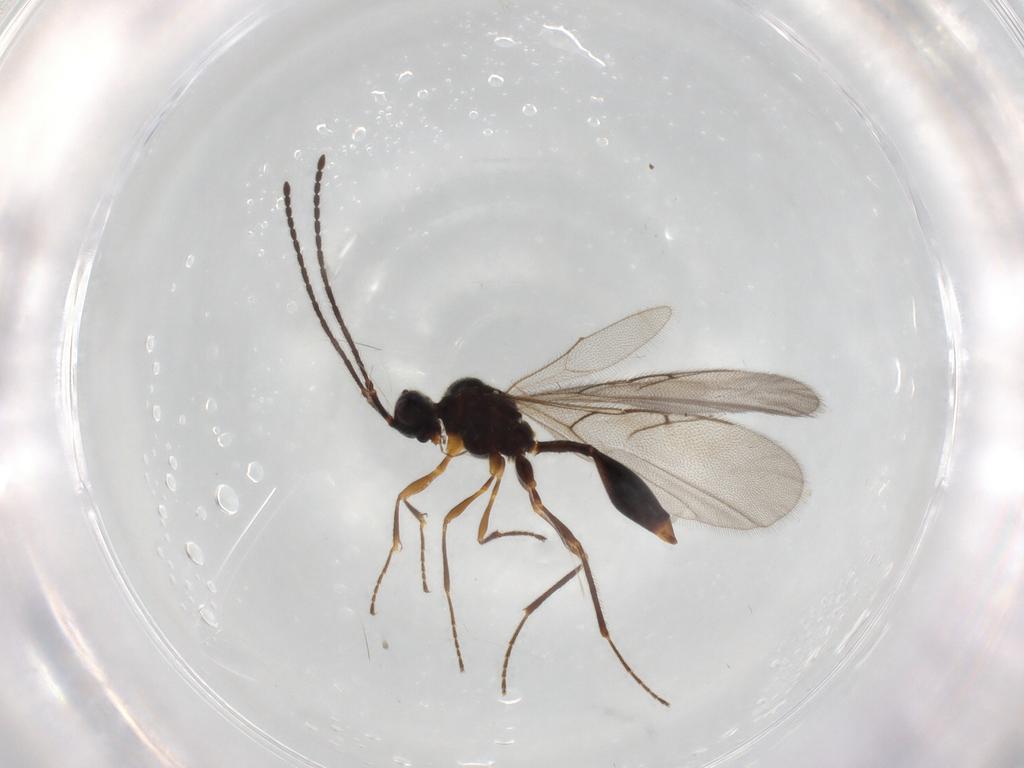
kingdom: Animalia
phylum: Arthropoda
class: Insecta
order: Hymenoptera
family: Diapriidae
